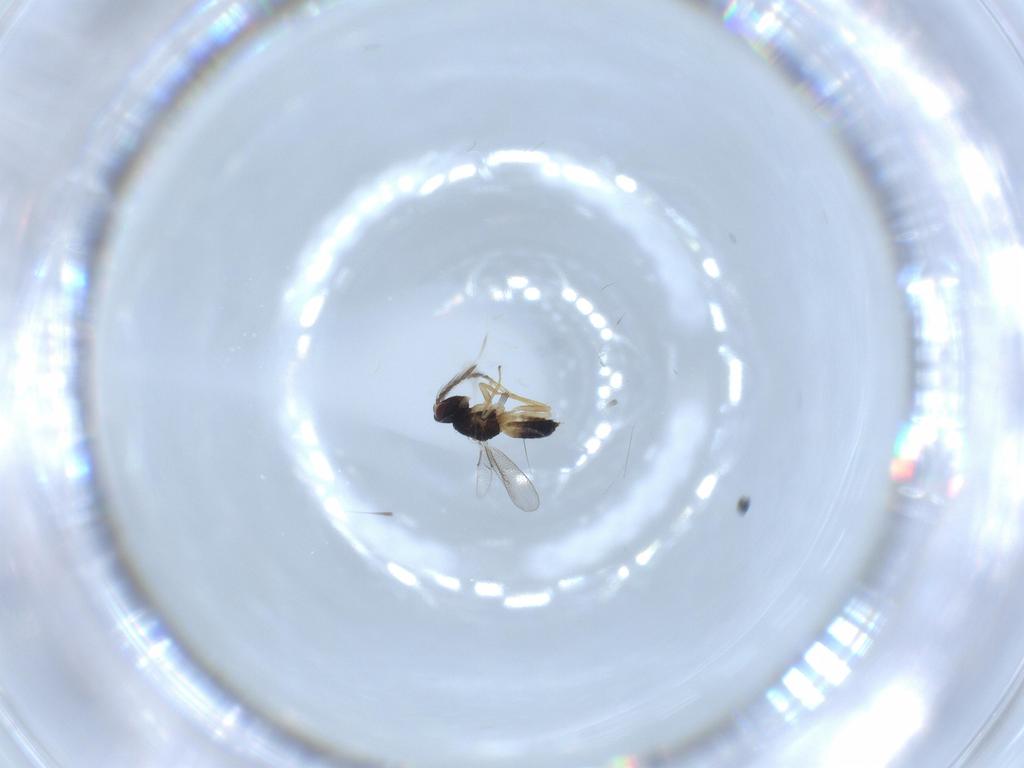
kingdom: Animalia
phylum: Arthropoda
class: Insecta
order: Hymenoptera
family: Eulophidae
